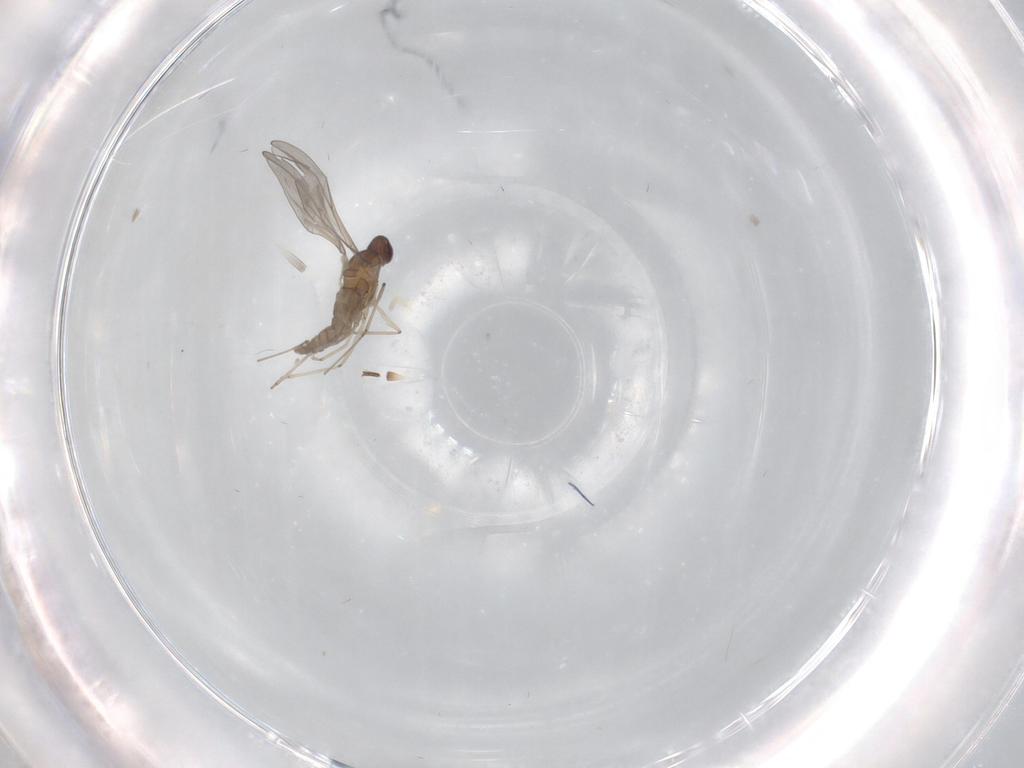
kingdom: Animalia
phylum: Arthropoda
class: Insecta
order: Diptera
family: Cecidomyiidae
